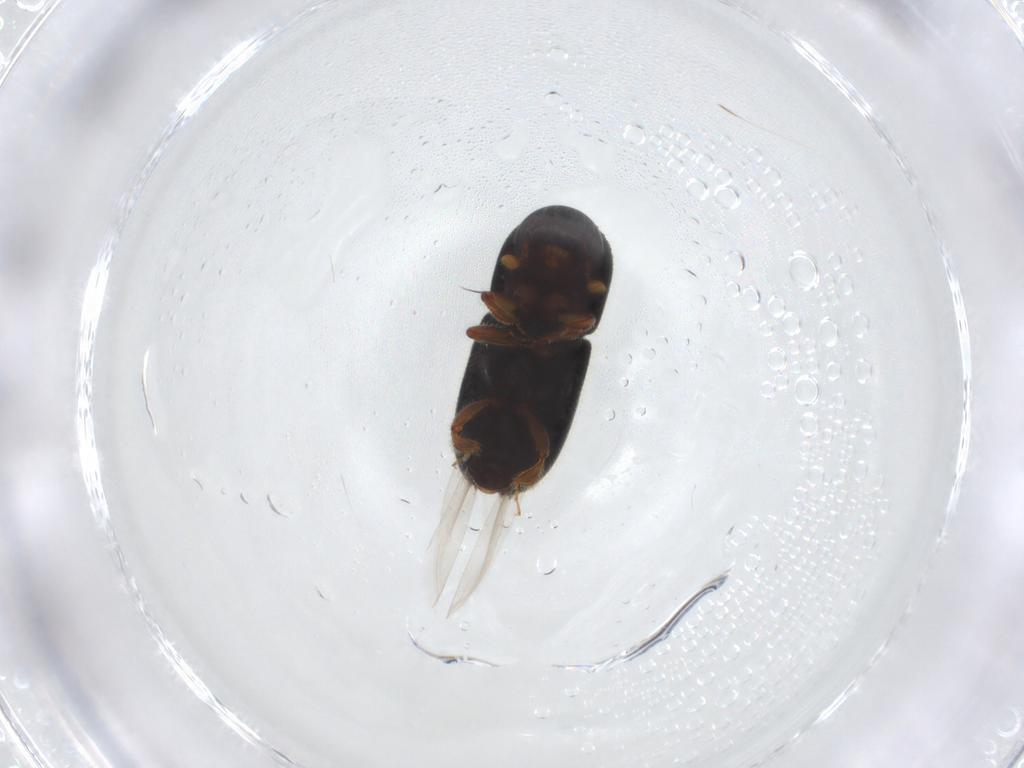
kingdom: Animalia
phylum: Arthropoda
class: Insecta
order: Coleoptera
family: Curculionidae
